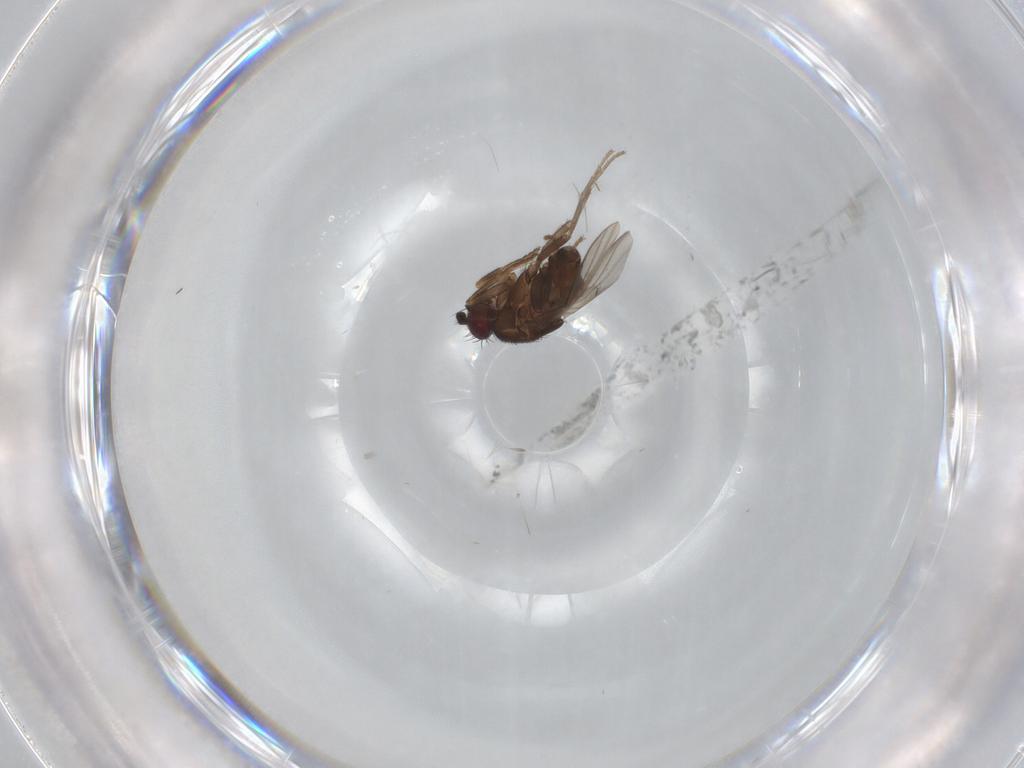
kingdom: Animalia
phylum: Arthropoda
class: Insecta
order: Diptera
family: Sphaeroceridae
